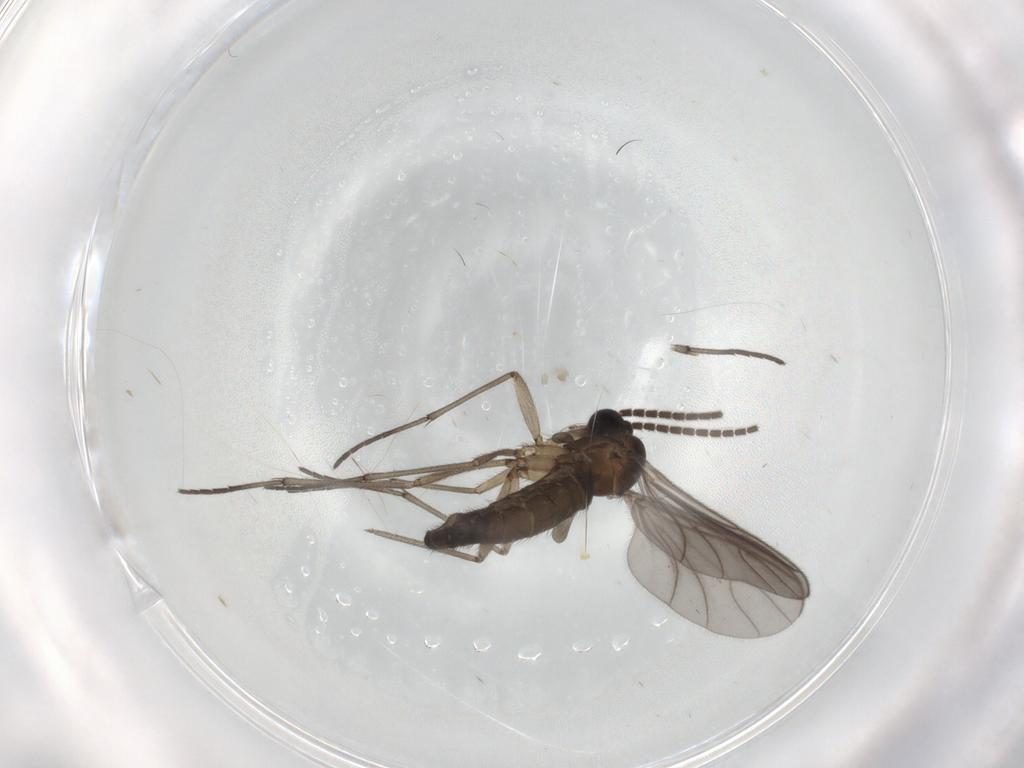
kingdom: Animalia
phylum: Arthropoda
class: Insecta
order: Diptera
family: Sciaridae
